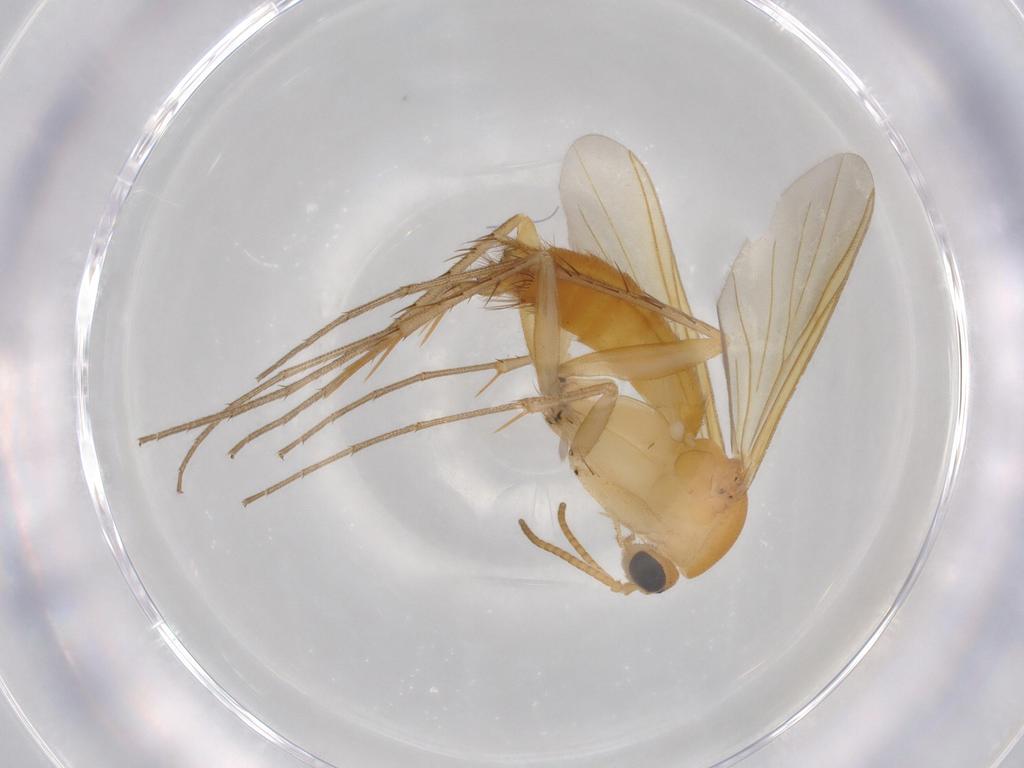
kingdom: Animalia
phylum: Arthropoda
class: Insecta
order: Diptera
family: Mycetophilidae
